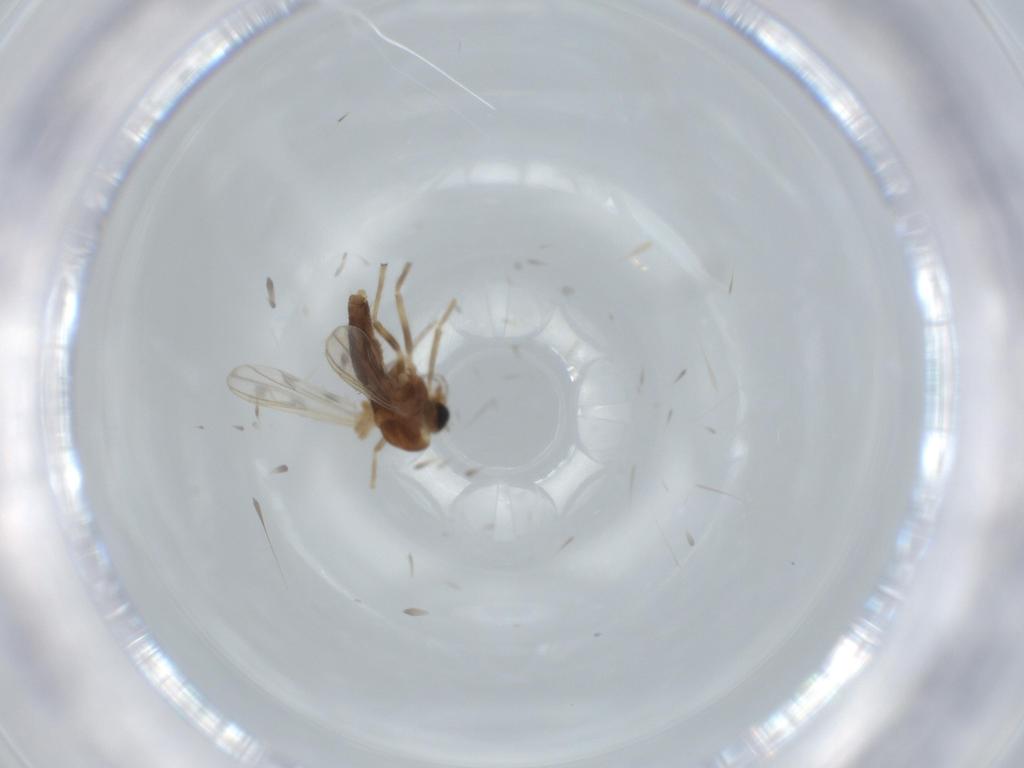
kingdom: Animalia
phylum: Arthropoda
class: Insecta
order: Diptera
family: Chironomidae
